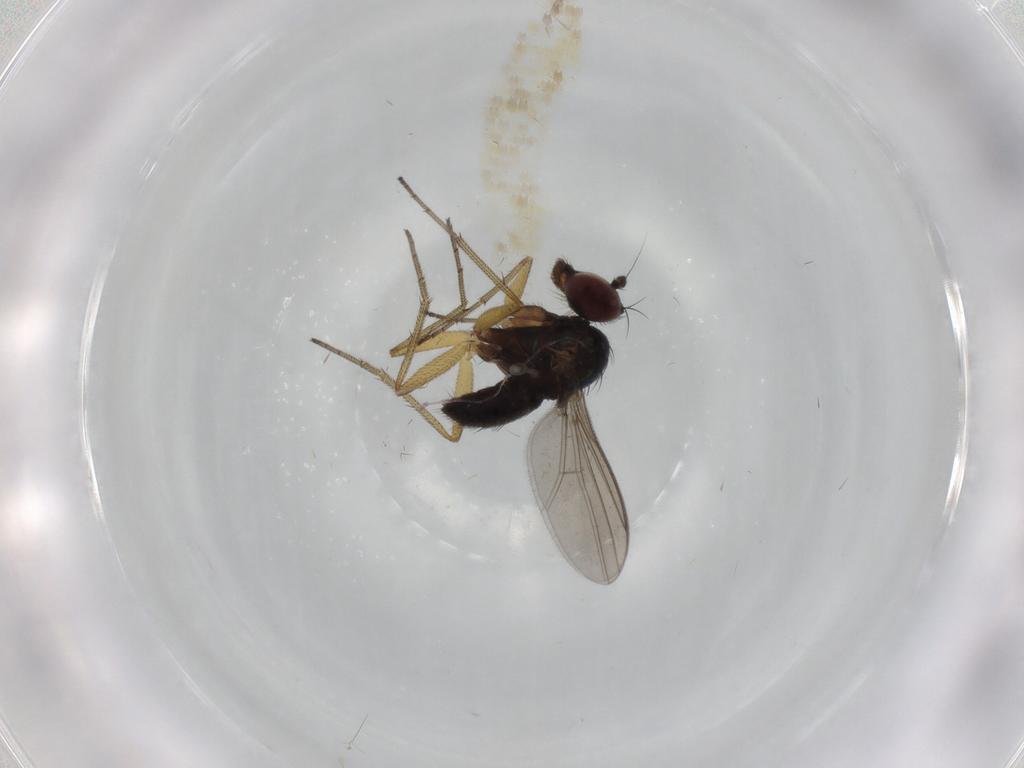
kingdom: Animalia
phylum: Arthropoda
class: Insecta
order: Diptera
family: Dolichopodidae
